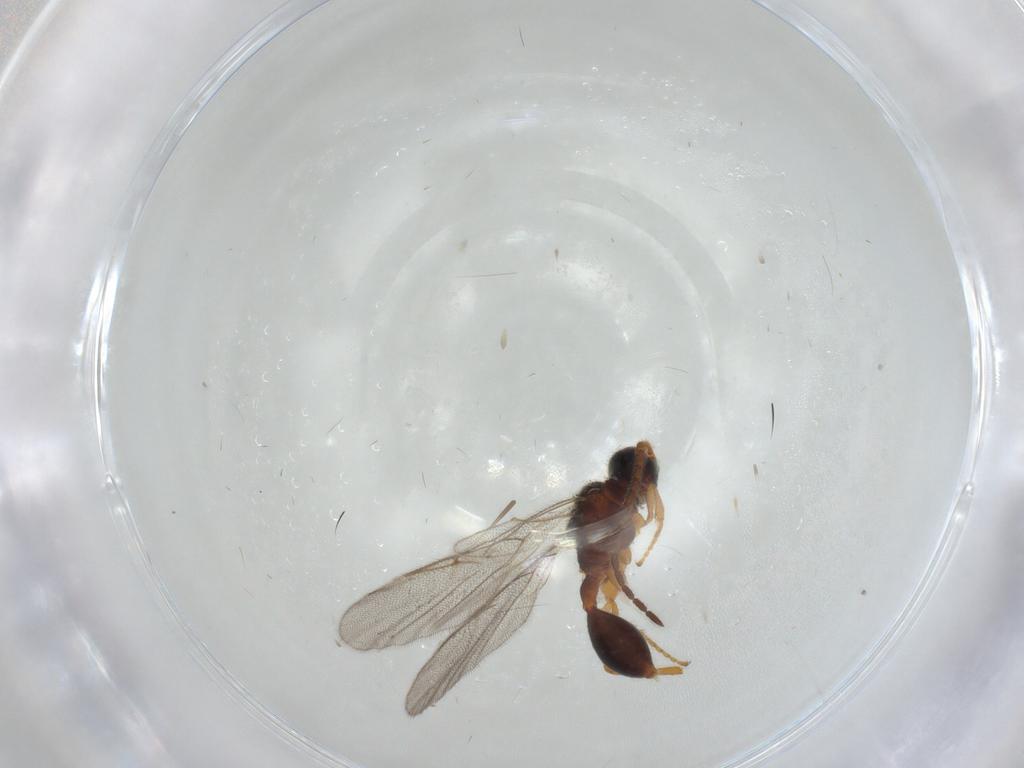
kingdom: Animalia
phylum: Arthropoda
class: Insecta
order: Hymenoptera
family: Diapriidae
